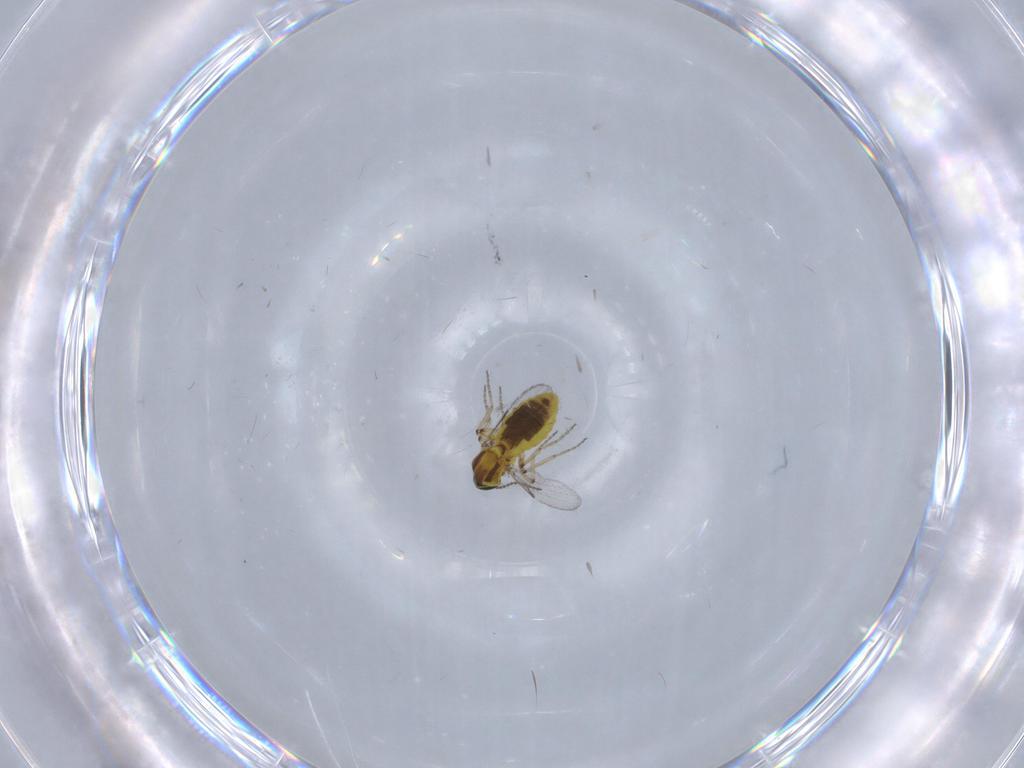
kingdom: Animalia
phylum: Arthropoda
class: Insecta
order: Diptera
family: Ceratopogonidae
